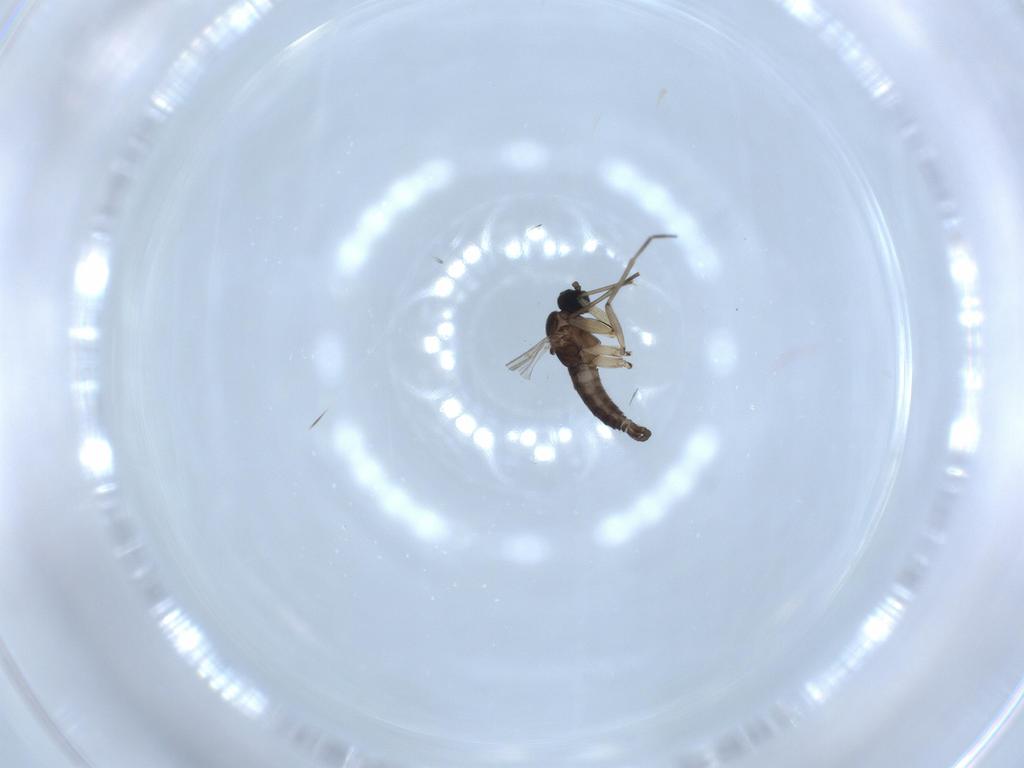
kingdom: Animalia
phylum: Arthropoda
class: Insecta
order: Diptera
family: Sciaridae
